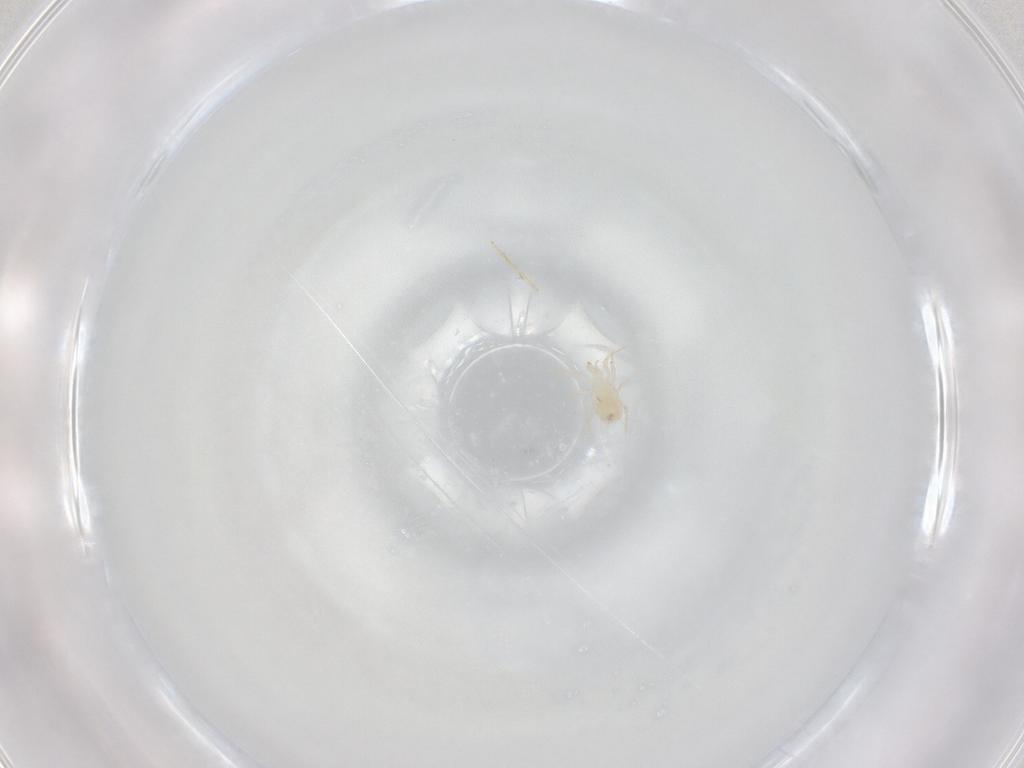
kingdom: Animalia
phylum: Arthropoda
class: Arachnida
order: Mesostigmata
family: Phytoseiidae
